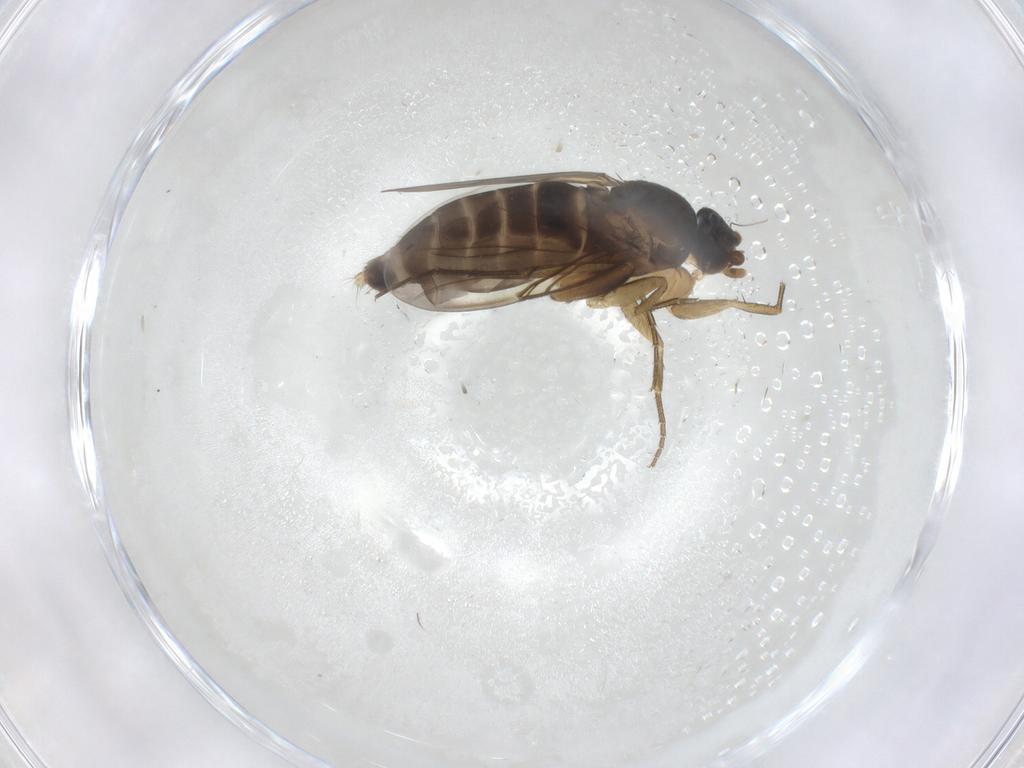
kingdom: Animalia
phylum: Arthropoda
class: Insecta
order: Diptera
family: Phoridae
